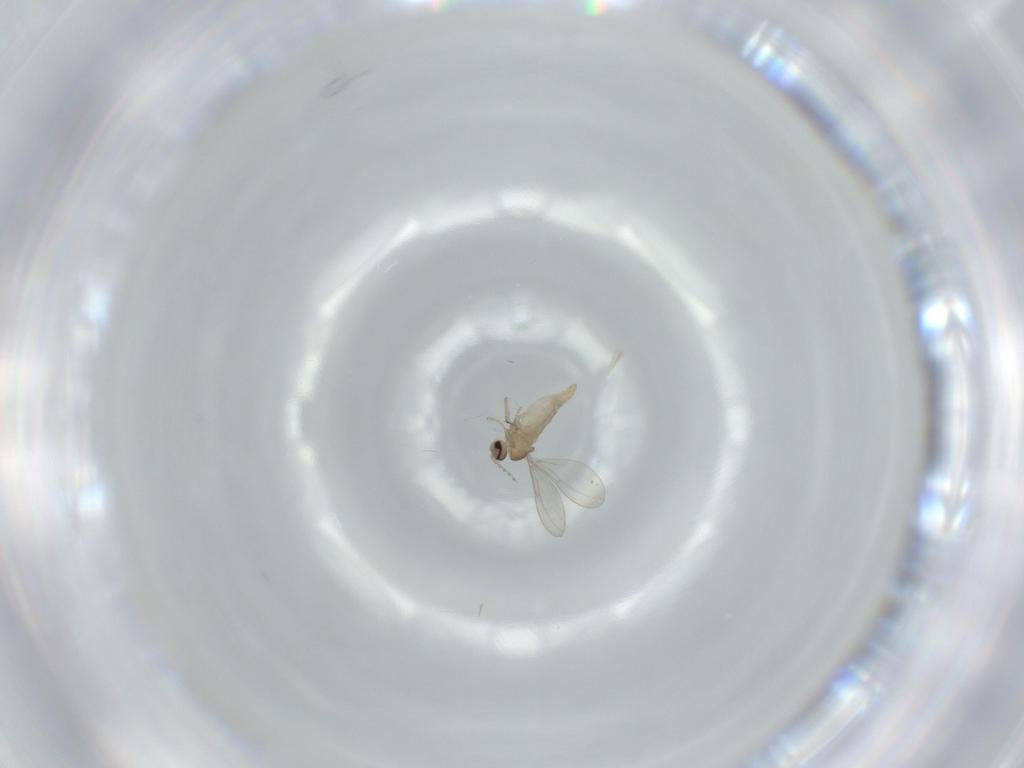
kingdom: Animalia
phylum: Arthropoda
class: Insecta
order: Diptera
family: Cecidomyiidae
